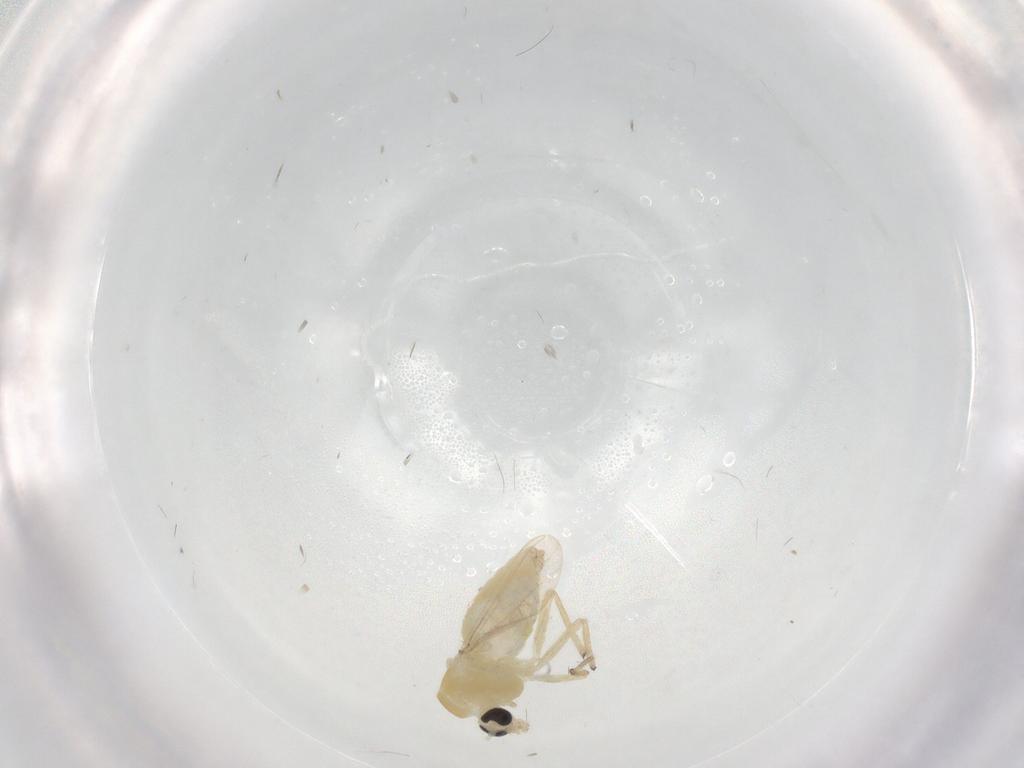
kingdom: Animalia
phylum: Arthropoda
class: Insecta
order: Diptera
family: Chironomidae
